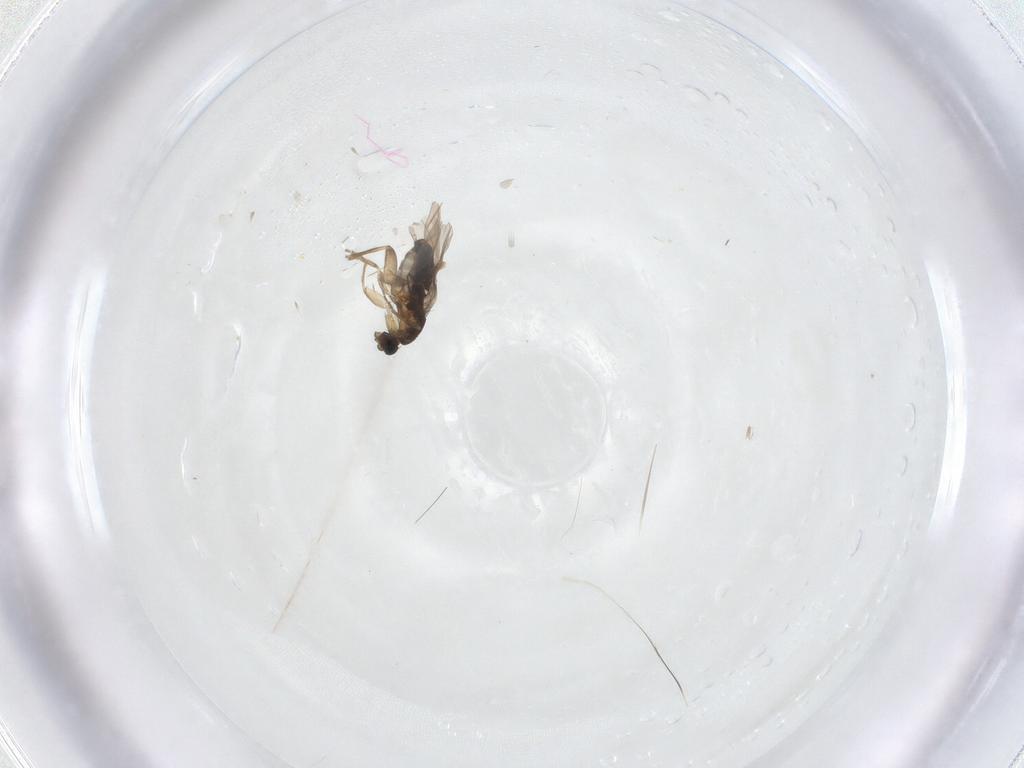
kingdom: Animalia
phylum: Arthropoda
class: Insecta
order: Diptera
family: Phoridae
